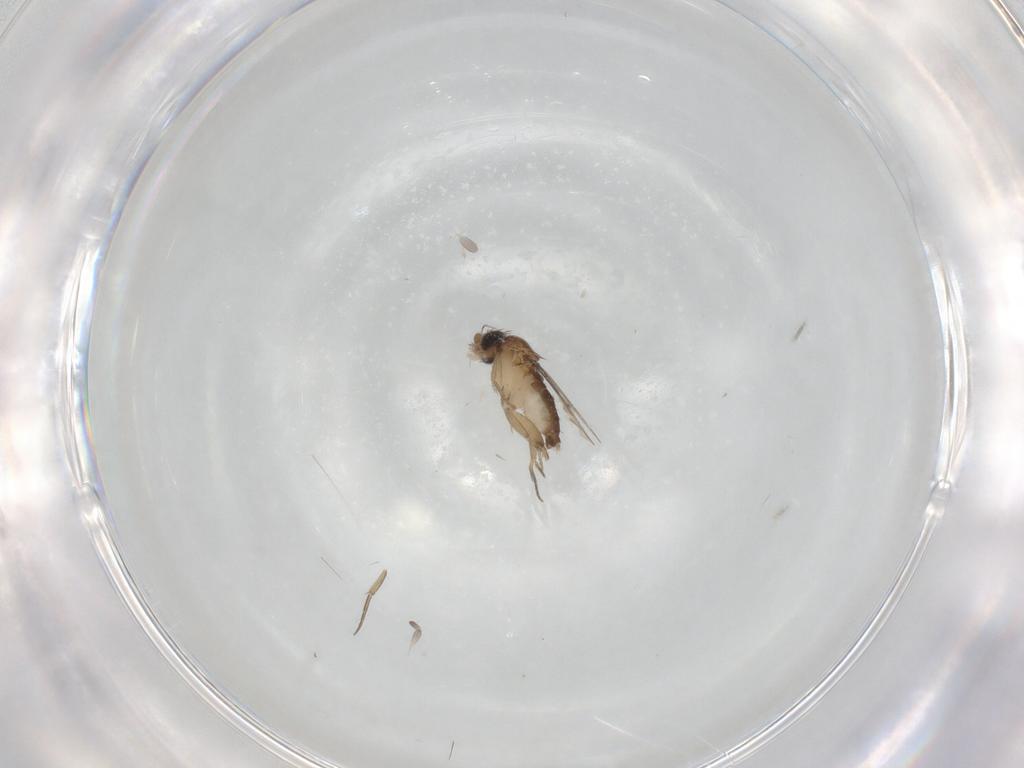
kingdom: Animalia
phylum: Arthropoda
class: Insecta
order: Diptera
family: Phoridae
